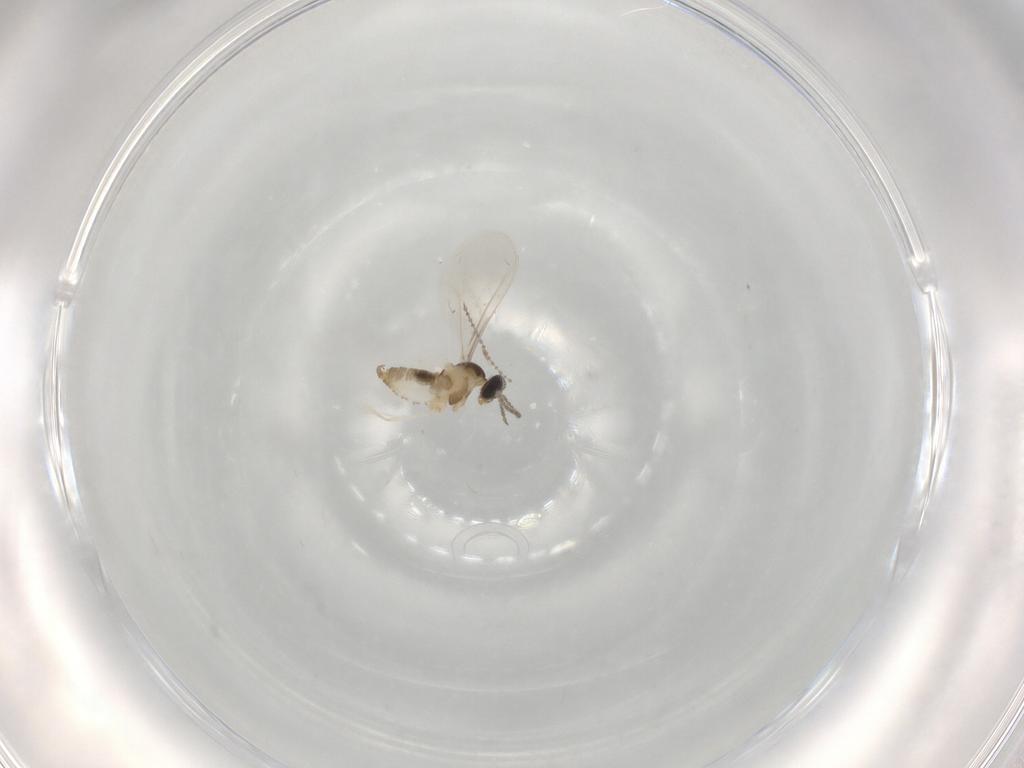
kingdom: Animalia
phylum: Arthropoda
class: Insecta
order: Diptera
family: Cecidomyiidae
